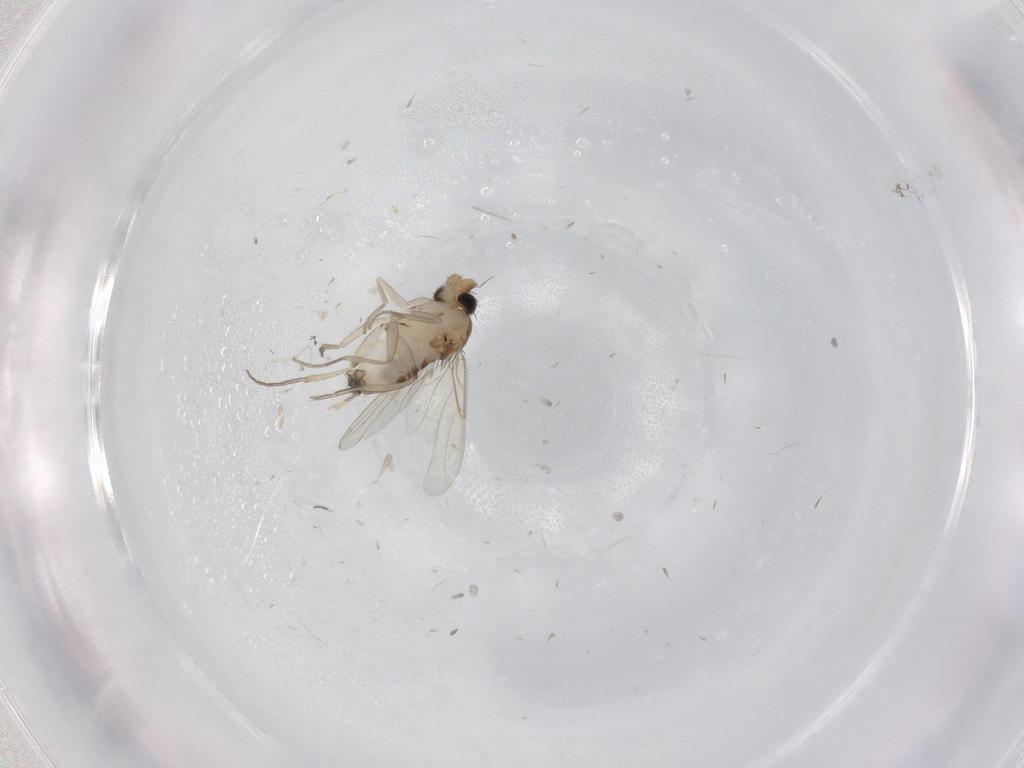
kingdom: Animalia
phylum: Arthropoda
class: Insecta
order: Diptera
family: Phoridae
